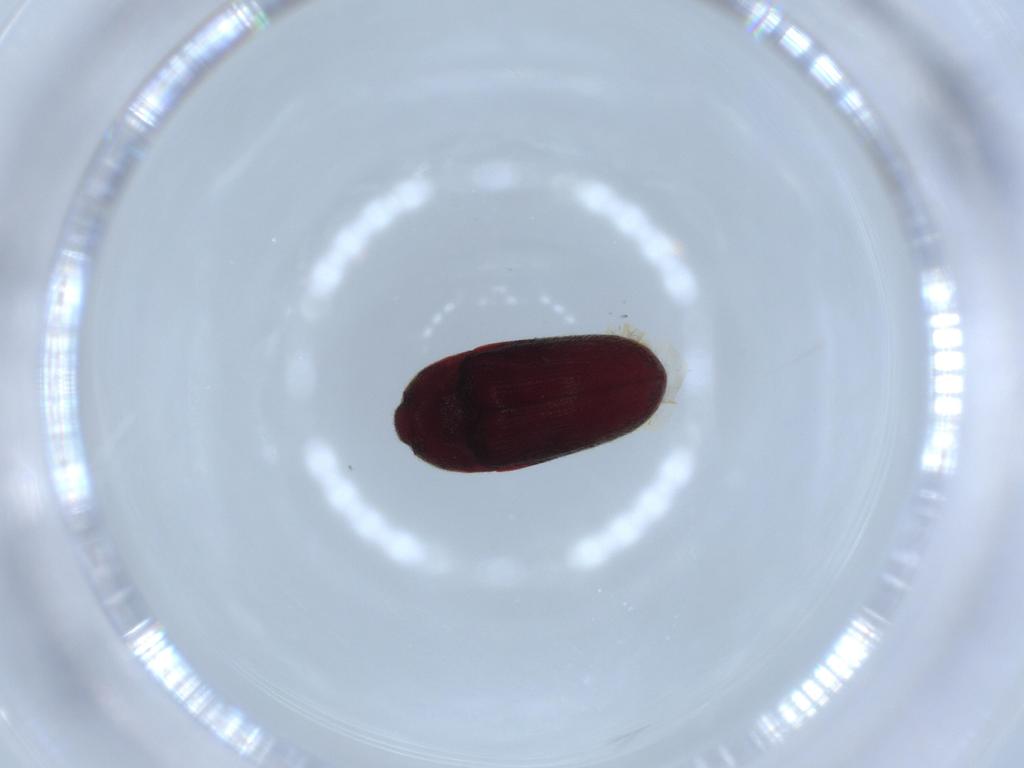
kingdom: Animalia
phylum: Arthropoda
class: Insecta
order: Coleoptera
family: Throscidae
